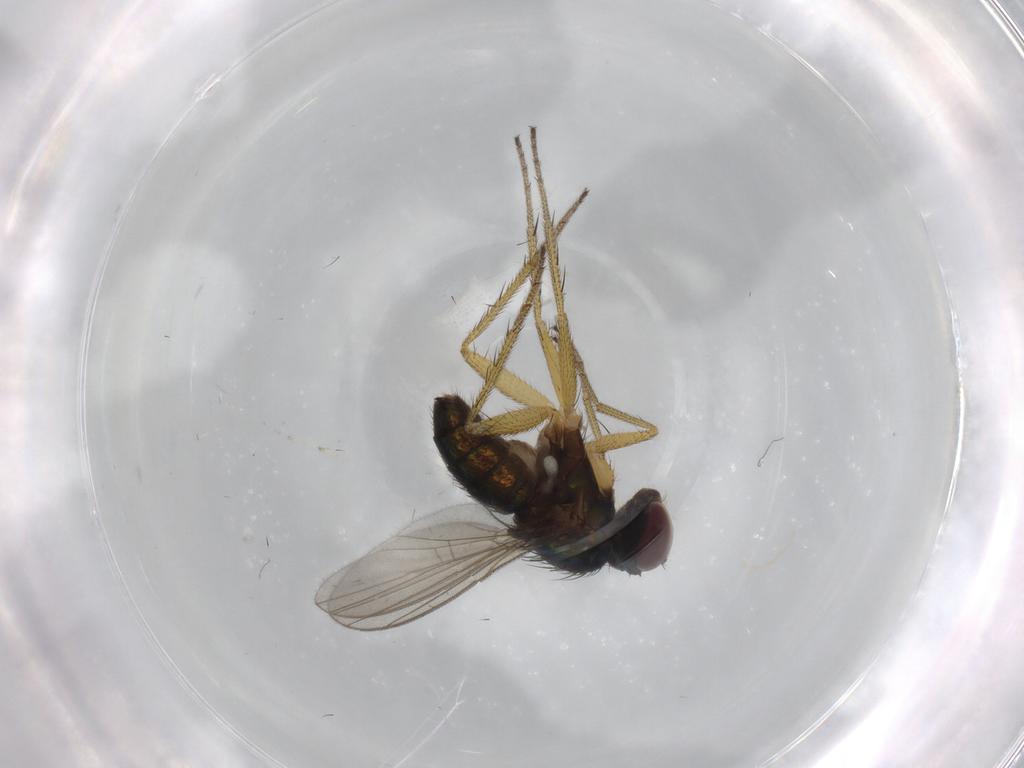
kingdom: Animalia
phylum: Arthropoda
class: Insecta
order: Diptera
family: Dolichopodidae
